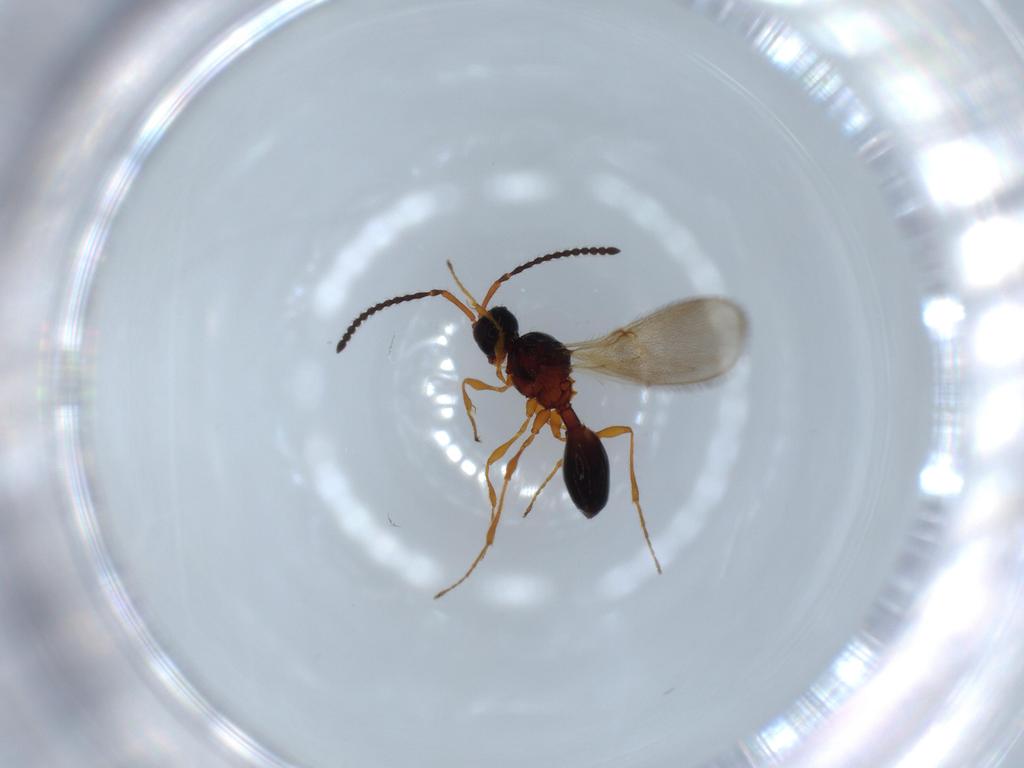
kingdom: Animalia
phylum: Arthropoda
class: Insecta
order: Hymenoptera
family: Diapriidae
